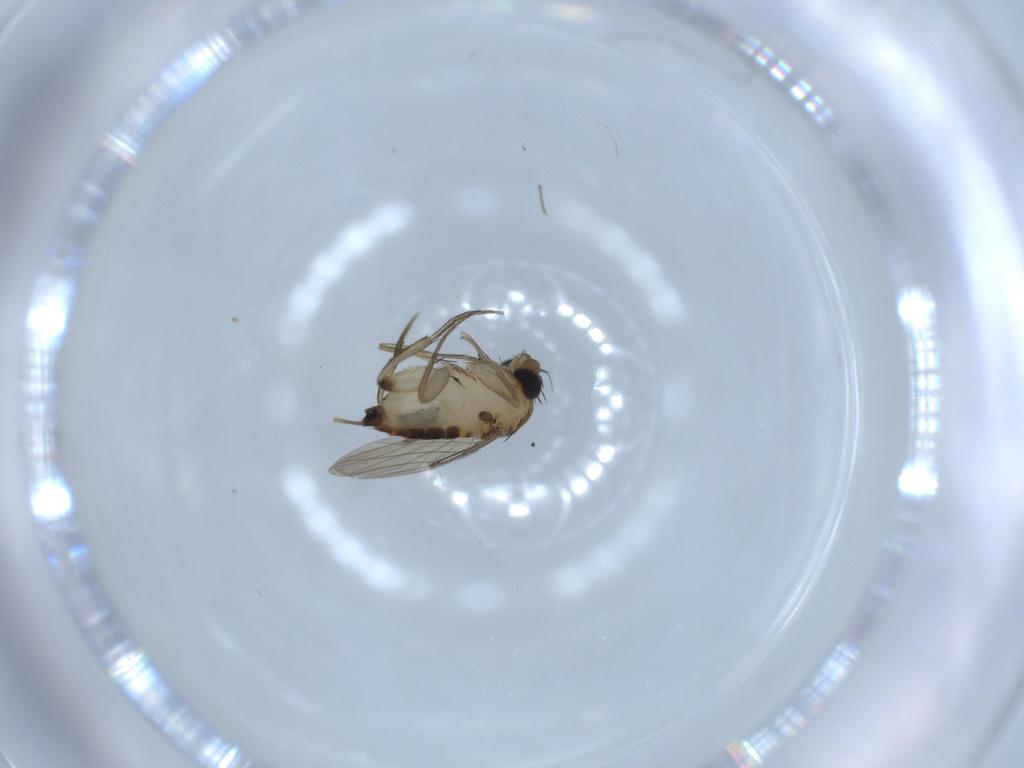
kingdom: Animalia
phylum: Arthropoda
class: Insecta
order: Diptera
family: Phoridae
